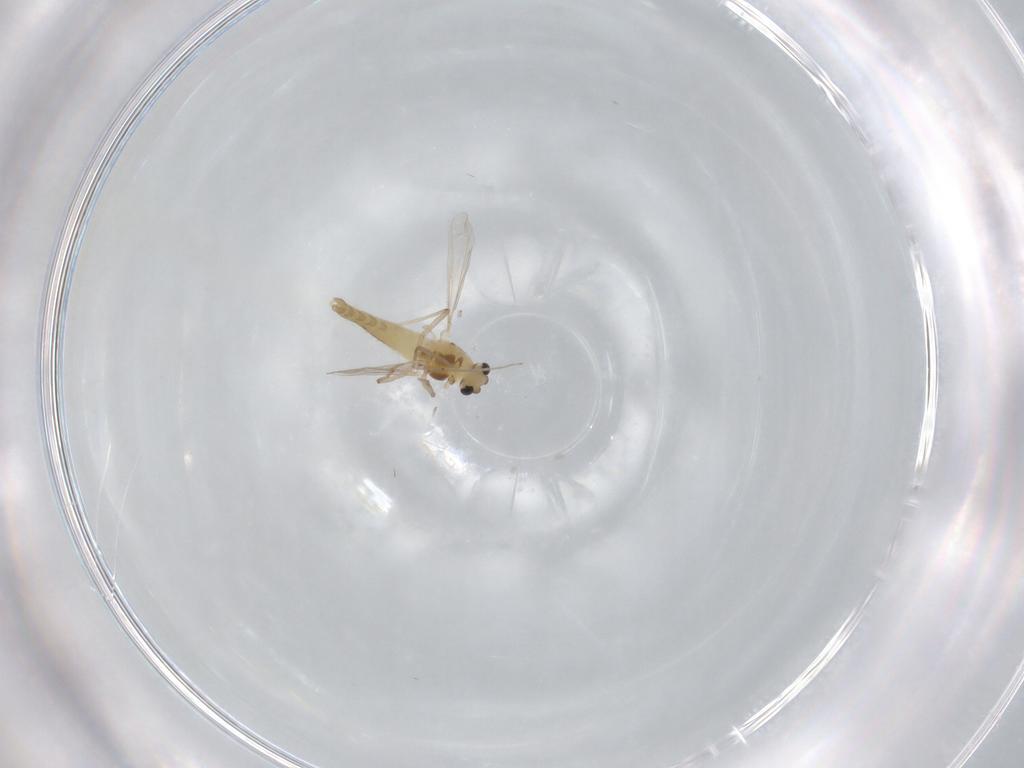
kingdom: Animalia
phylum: Arthropoda
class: Insecta
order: Diptera
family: Chironomidae
